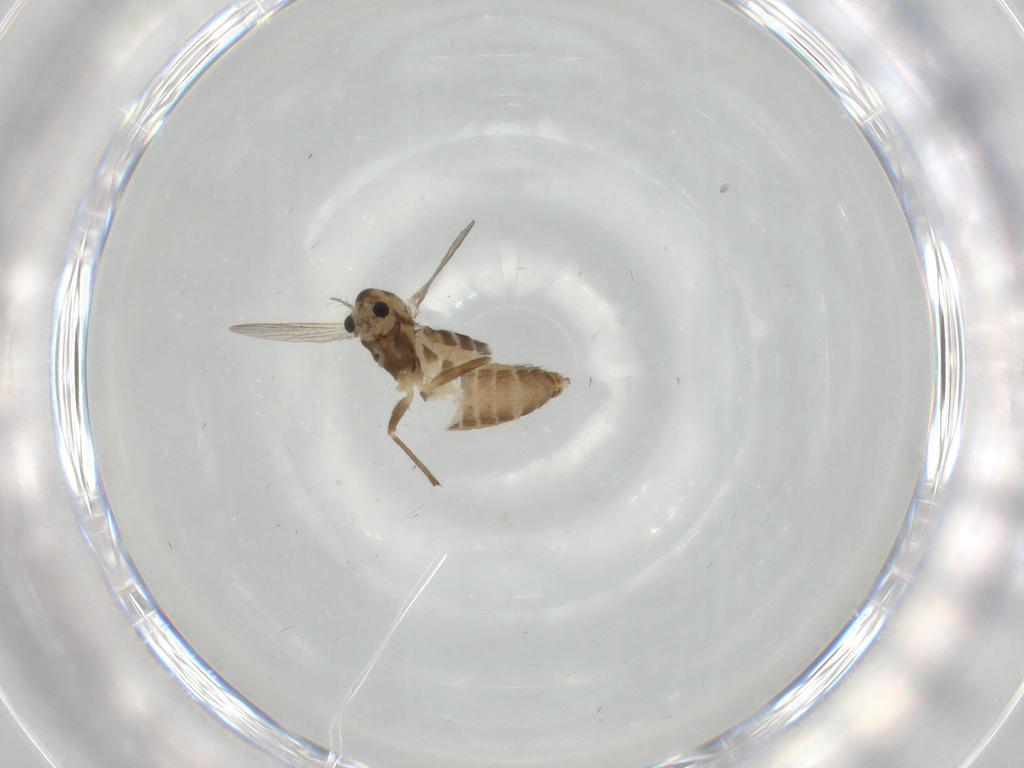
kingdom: Animalia
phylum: Arthropoda
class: Insecta
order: Diptera
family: Chironomidae
